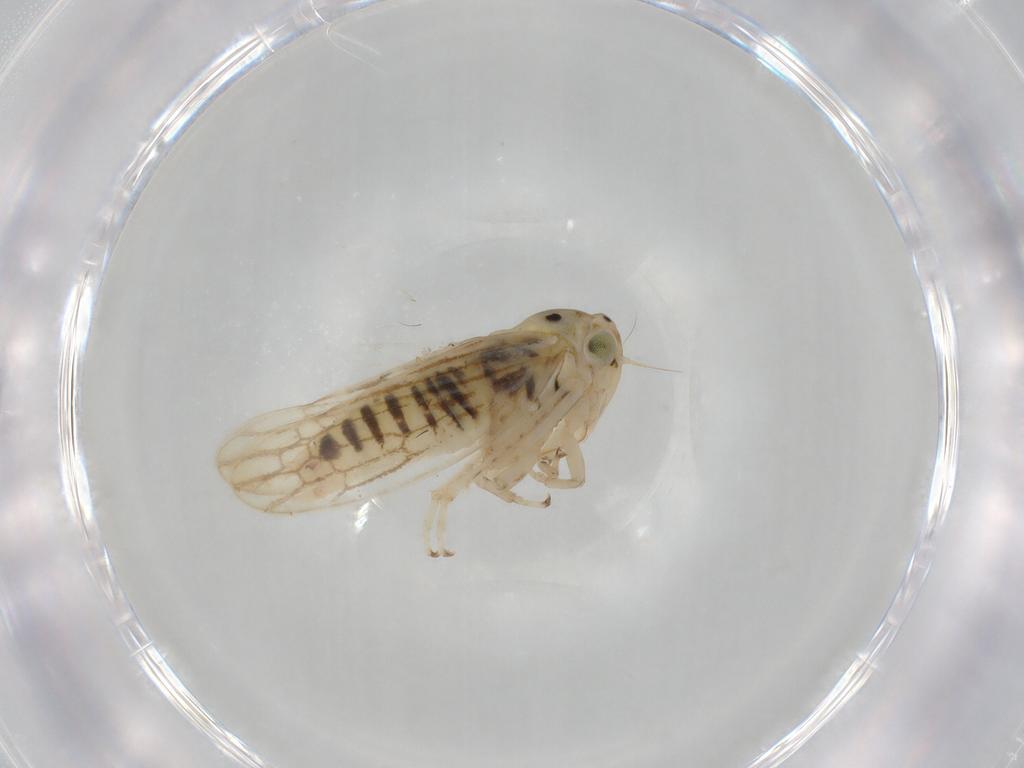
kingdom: Animalia
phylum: Arthropoda
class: Insecta
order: Hemiptera
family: Cicadellidae
